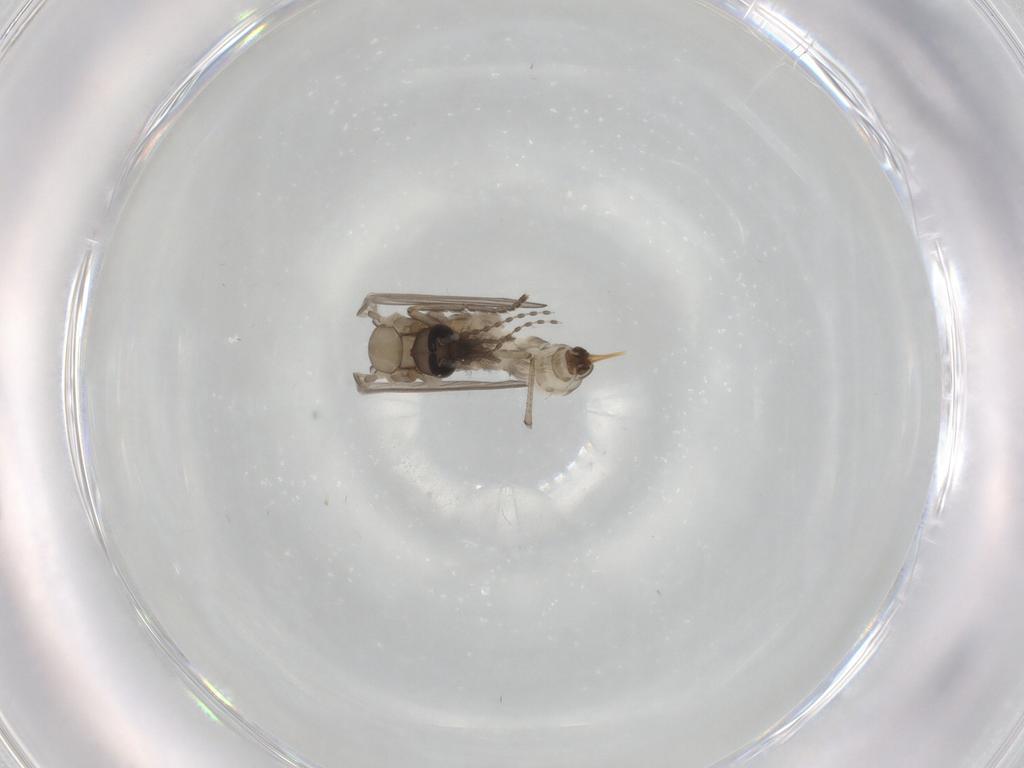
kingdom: Animalia
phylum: Arthropoda
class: Insecta
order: Diptera
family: Psychodidae
